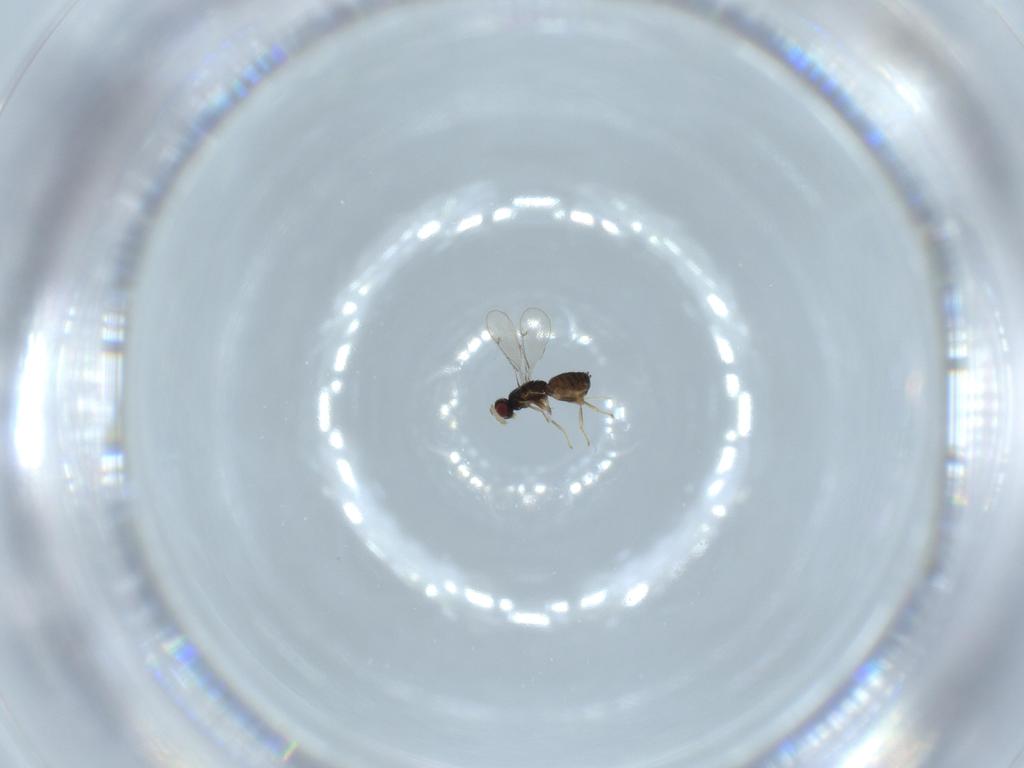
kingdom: Animalia
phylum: Arthropoda
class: Insecta
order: Hymenoptera
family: Eulophidae
